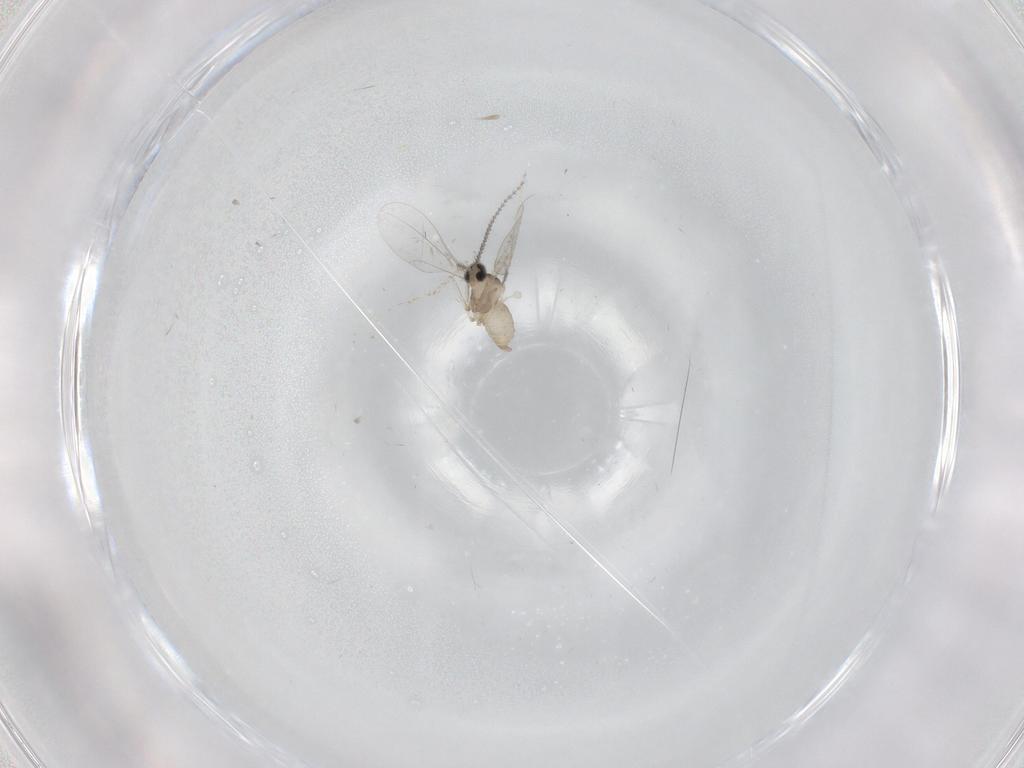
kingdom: Animalia
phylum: Arthropoda
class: Insecta
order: Diptera
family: Cecidomyiidae
